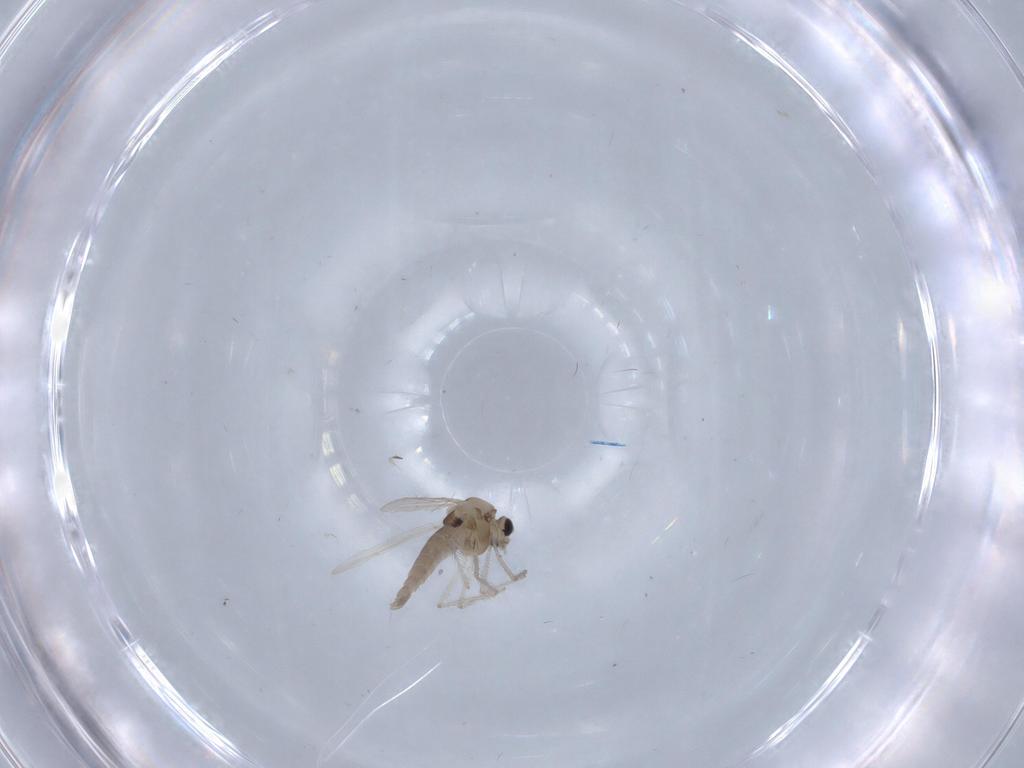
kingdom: Animalia
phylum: Arthropoda
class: Insecta
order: Diptera
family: Chironomidae
